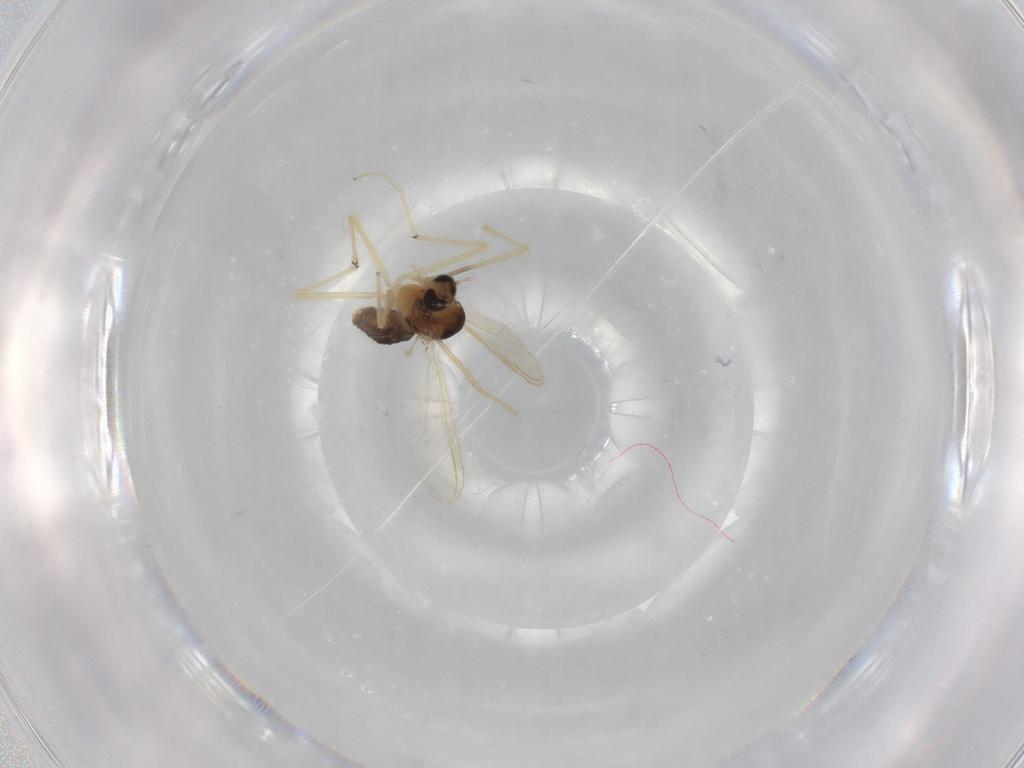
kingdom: Animalia
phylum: Arthropoda
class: Insecta
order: Diptera
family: Chironomidae
